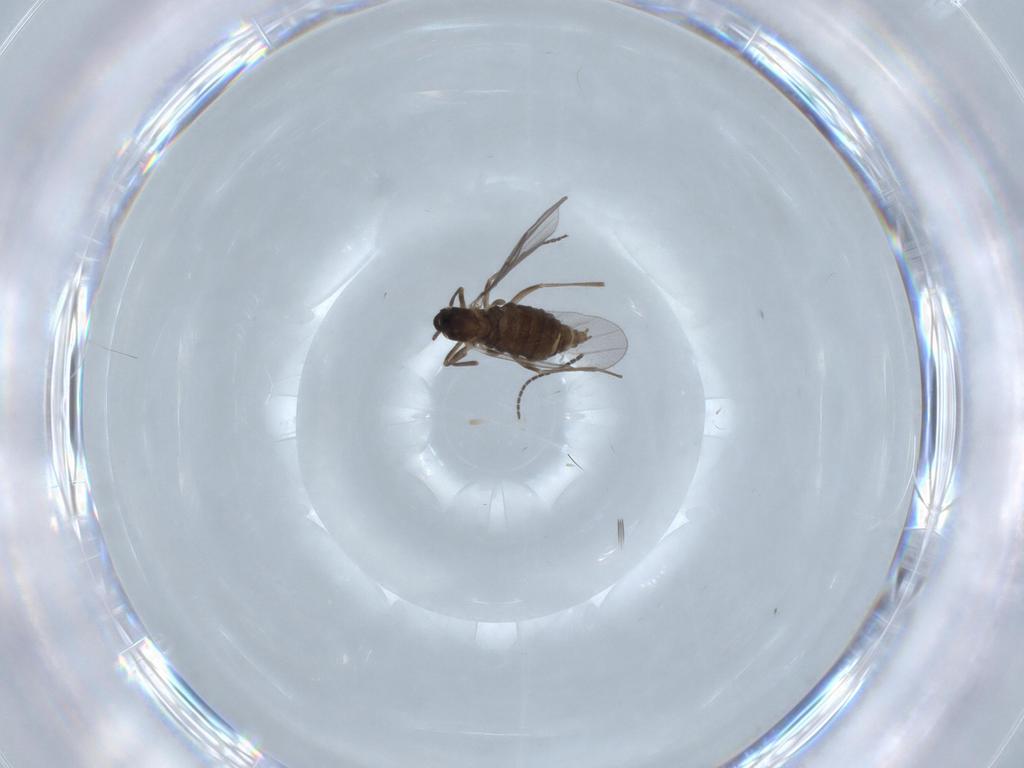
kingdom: Animalia
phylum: Arthropoda
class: Insecta
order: Diptera
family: Cecidomyiidae
